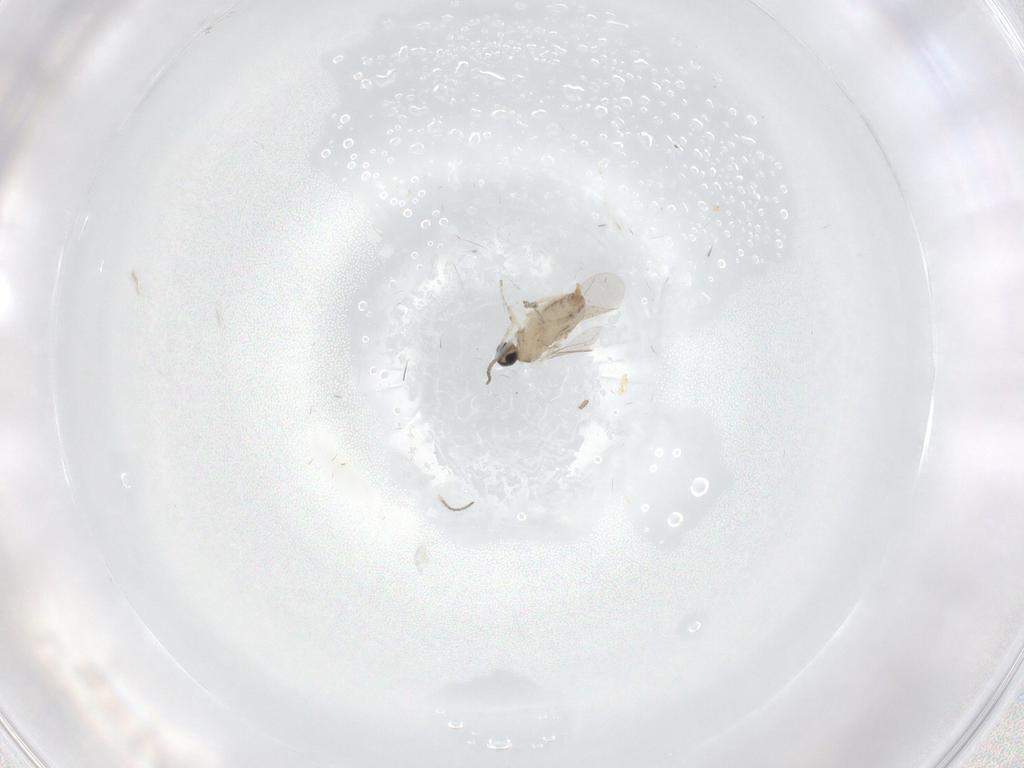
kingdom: Animalia
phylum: Arthropoda
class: Insecta
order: Diptera
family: Cecidomyiidae
